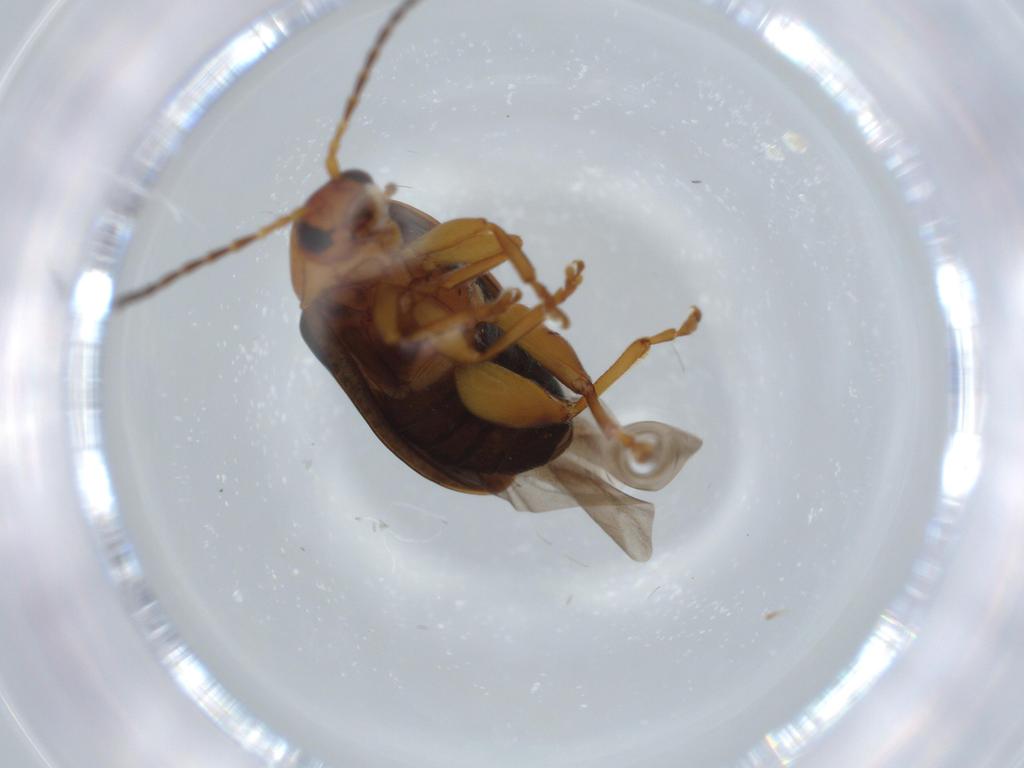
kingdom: Animalia
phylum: Arthropoda
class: Insecta
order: Coleoptera
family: Chrysomelidae
